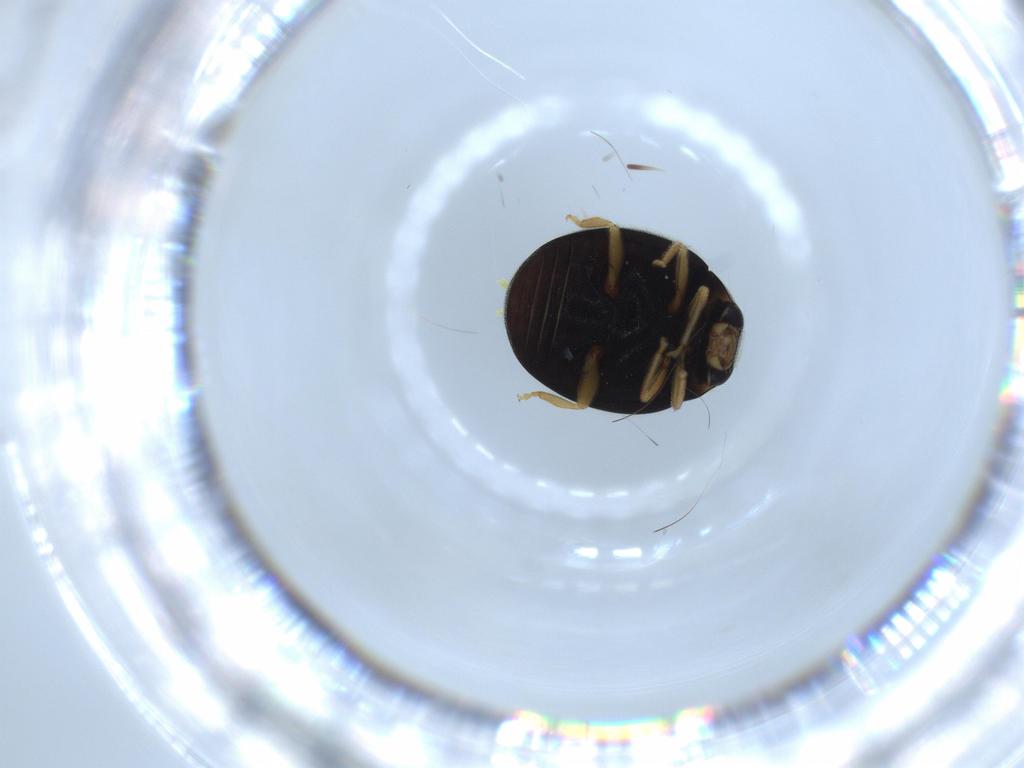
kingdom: Animalia
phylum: Arthropoda
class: Insecta
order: Coleoptera
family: Coccinellidae
